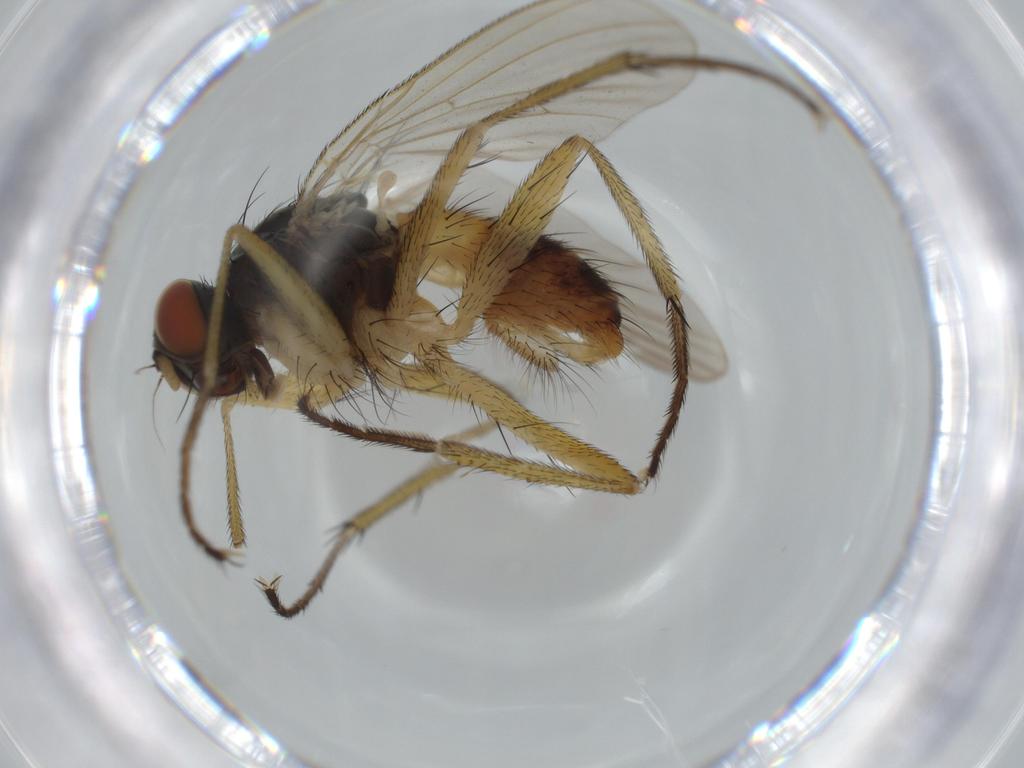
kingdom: Animalia
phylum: Arthropoda
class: Insecta
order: Diptera
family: Muscidae
